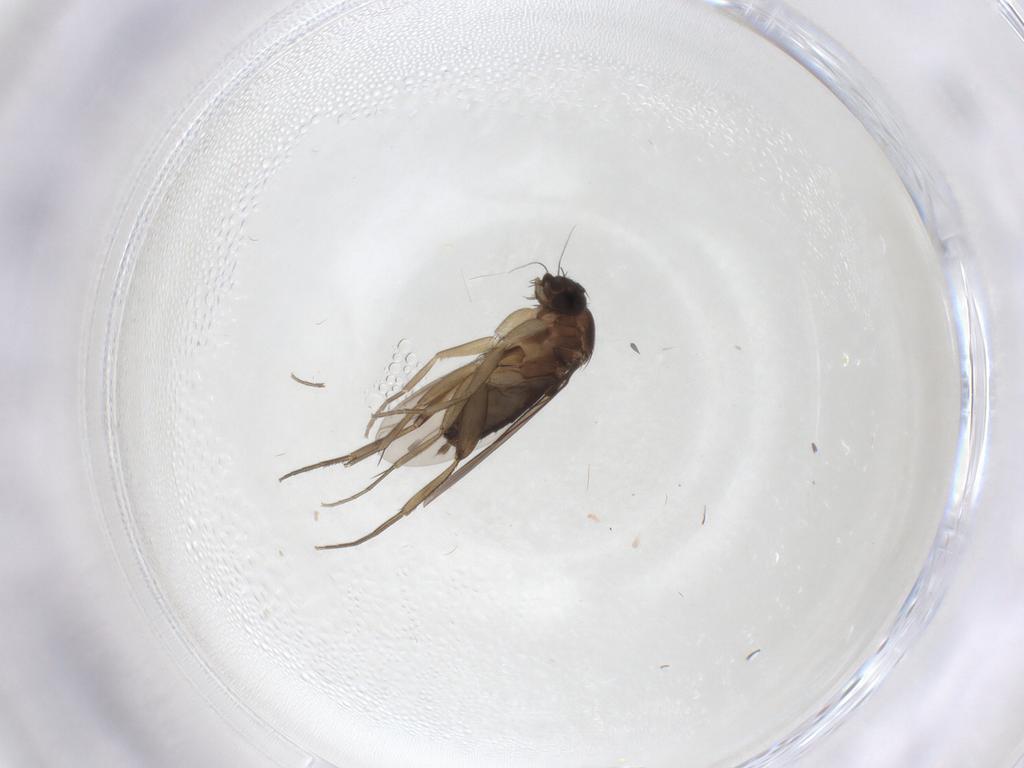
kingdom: Animalia
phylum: Arthropoda
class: Insecta
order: Diptera
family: Phoridae
